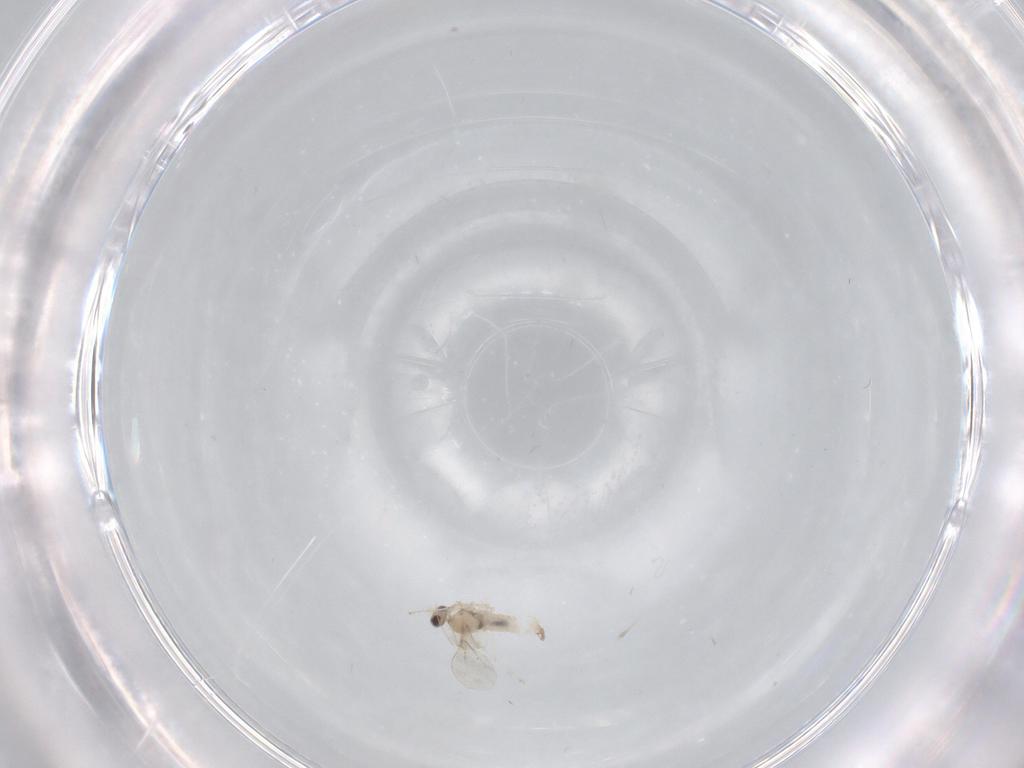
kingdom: Animalia
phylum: Arthropoda
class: Insecta
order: Diptera
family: Cecidomyiidae
